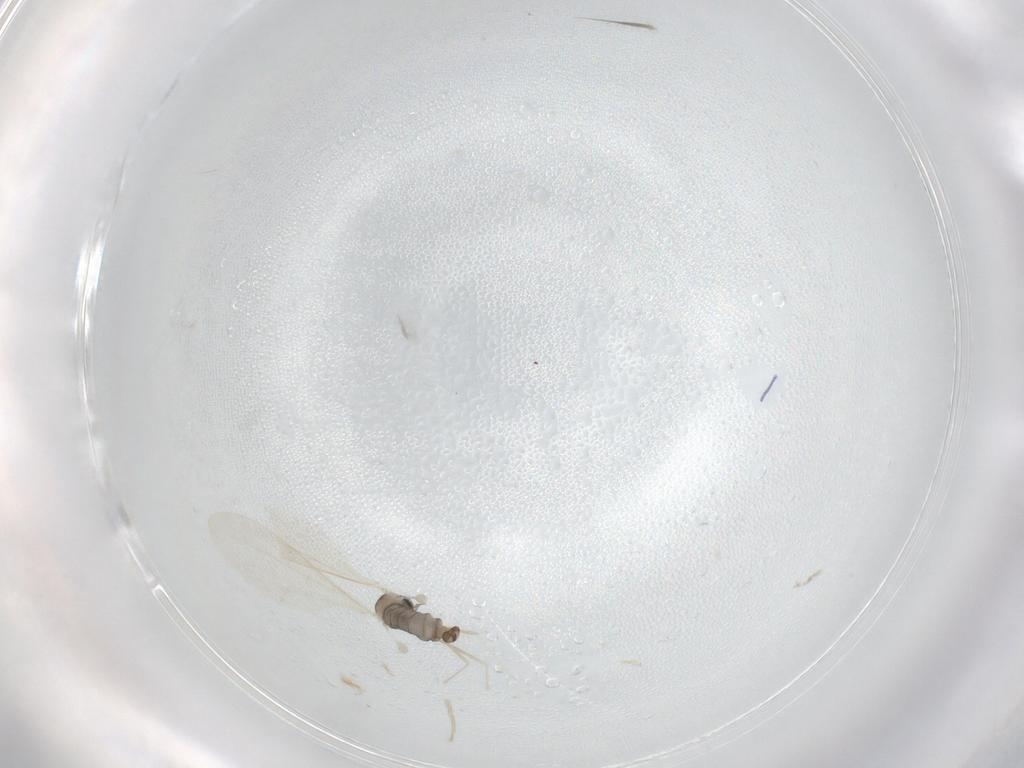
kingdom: Animalia
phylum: Arthropoda
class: Insecta
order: Diptera
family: Cecidomyiidae
